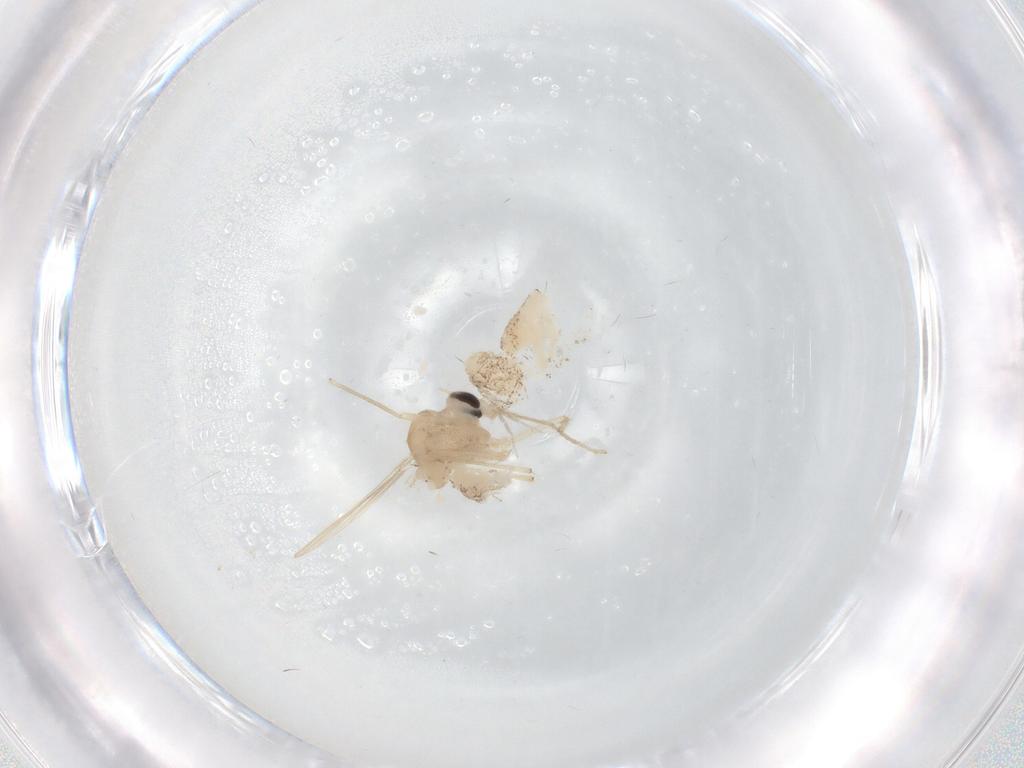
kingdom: Animalia
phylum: Arthropoda
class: Insecta
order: Diptera
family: Chironomidae
